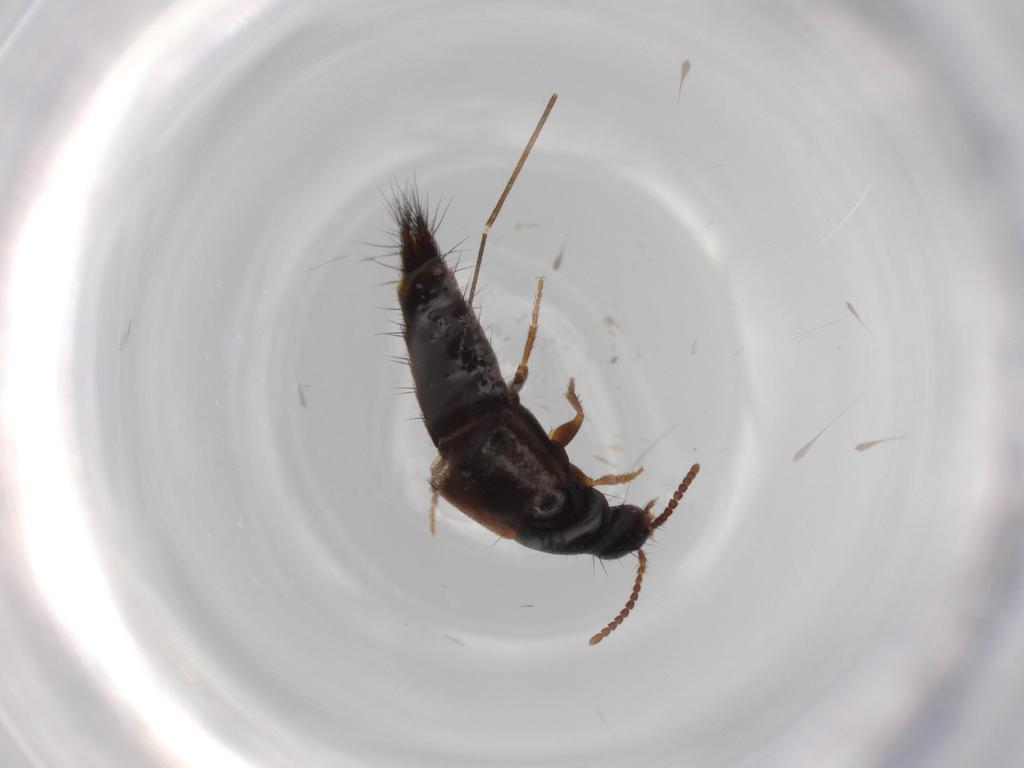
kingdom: Animalia
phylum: Arthropoda
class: Insecta
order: Coleoptera
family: Staphylinidae
